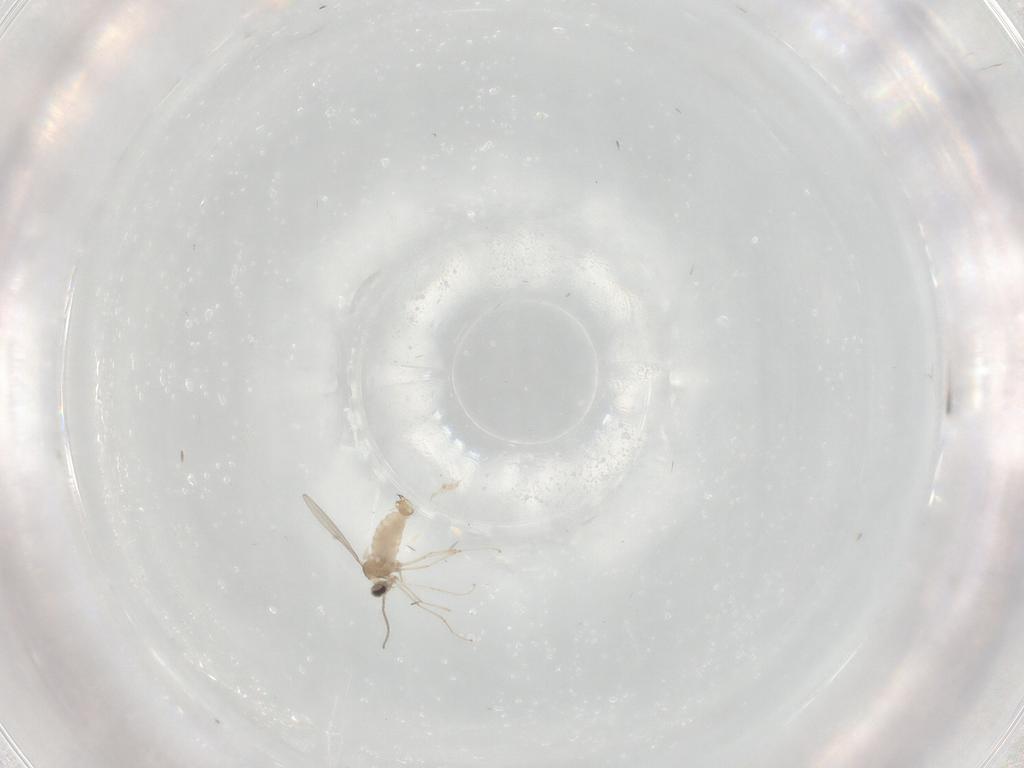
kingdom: Animalia
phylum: Arthropoda
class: Insecta
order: Diptera
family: Cecidomyiidae
